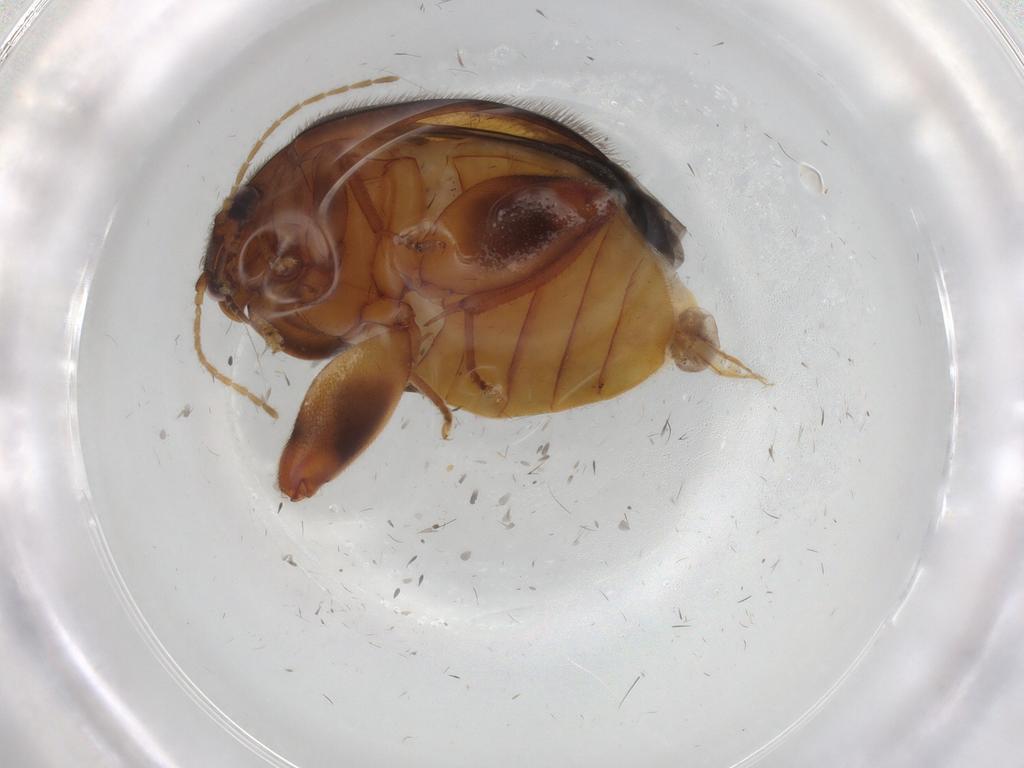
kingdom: Animalia
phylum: Arthropoda
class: Insecta
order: Coleoptera
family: Scirtidae
